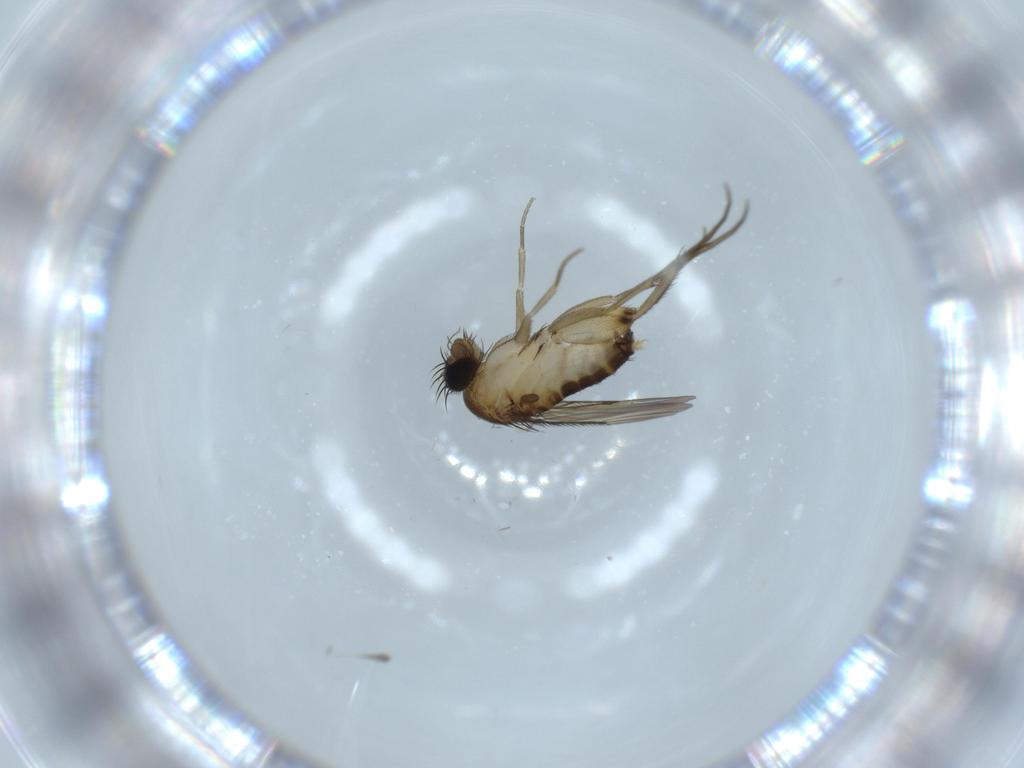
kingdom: Animalia
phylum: Arthropoda
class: Insecta
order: Diptera
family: Phoridae
